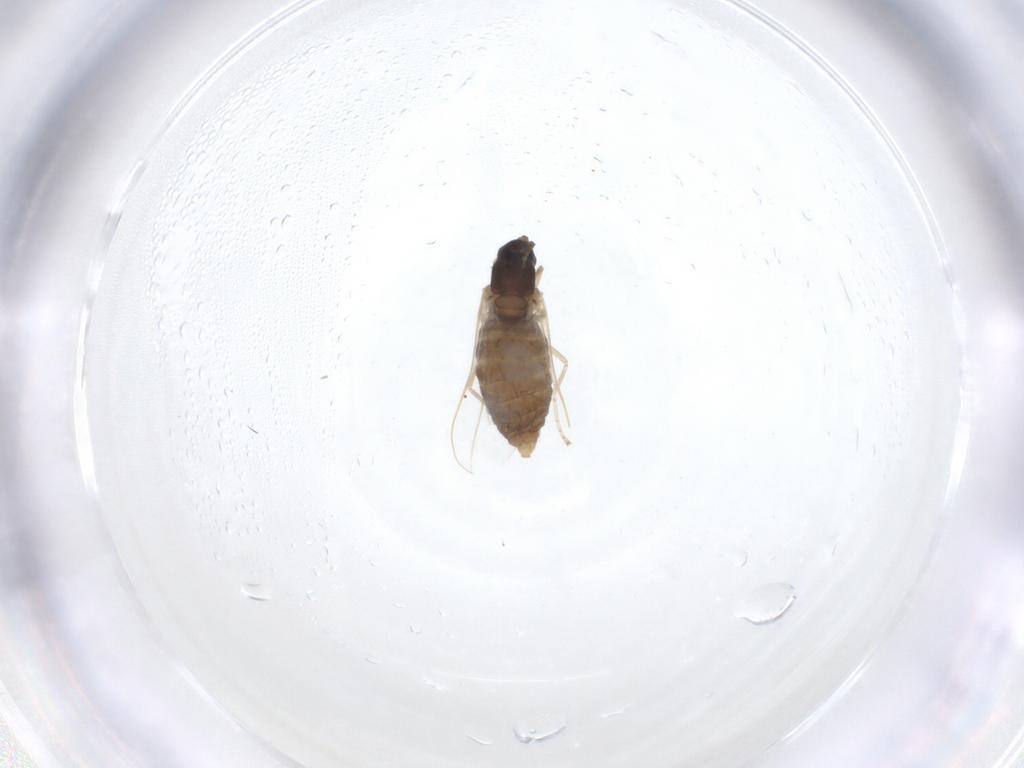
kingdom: Animalia
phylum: Arthropoda
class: Insecta
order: Diptera
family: Cecidomyiidae
